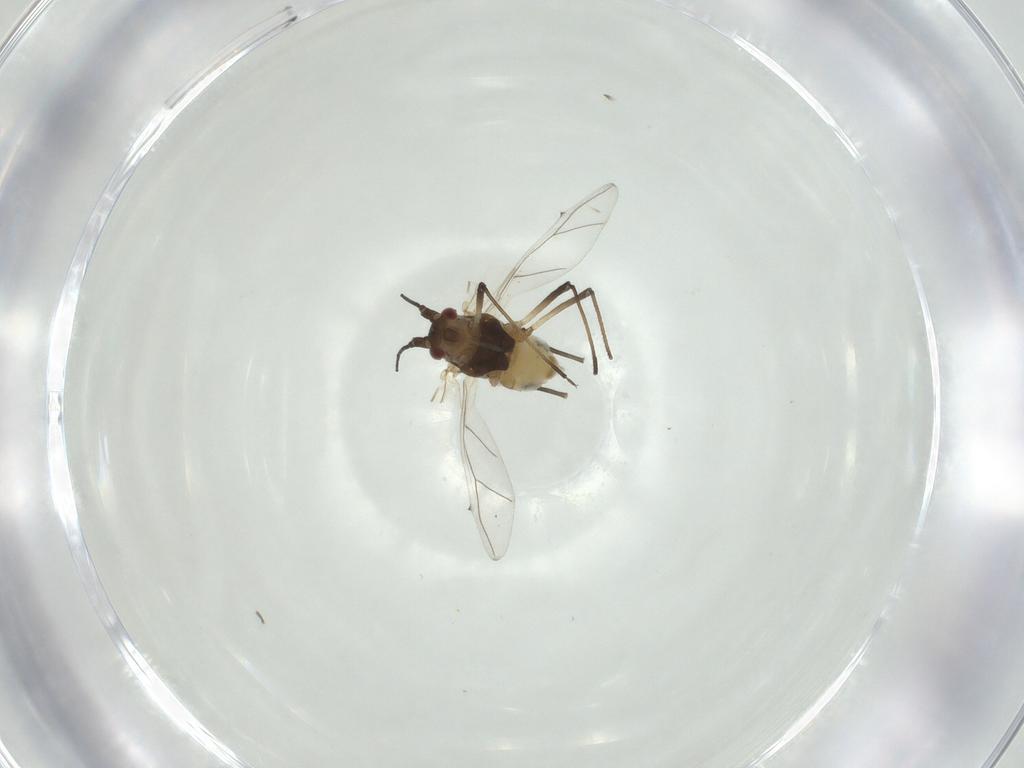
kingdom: Animalia
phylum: Arthropoda
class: Insecta
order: Hemiptera
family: Aphididae
